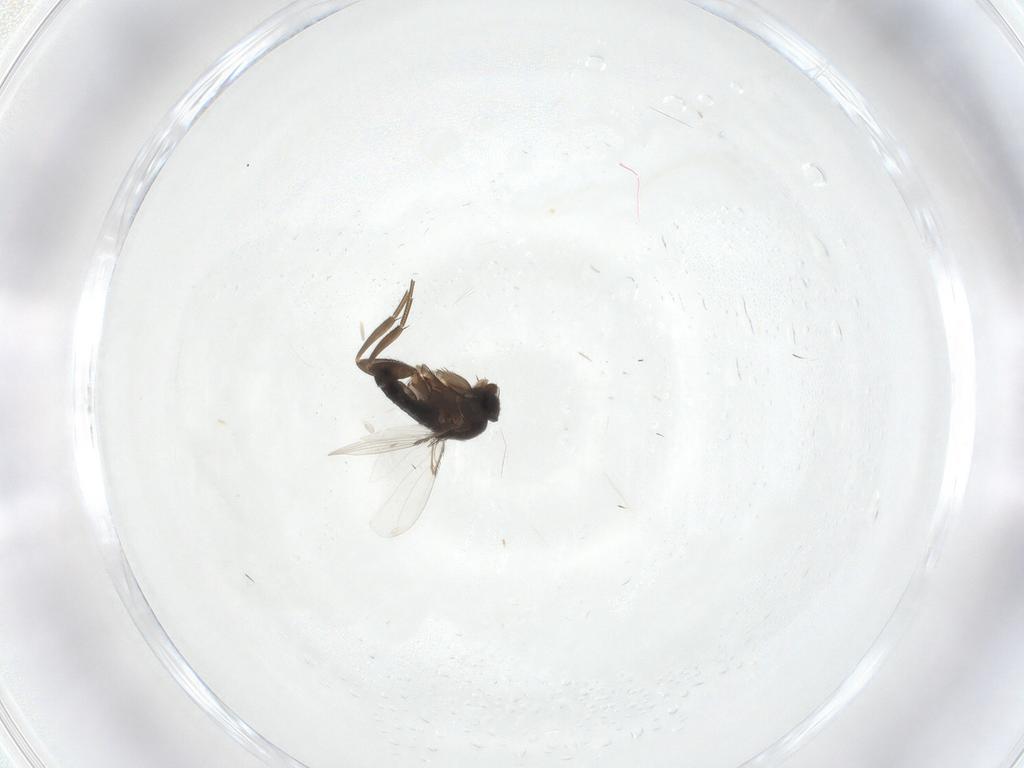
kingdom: Animalia
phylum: Arthropoda
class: Insecta
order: Diptera
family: Phoridae
